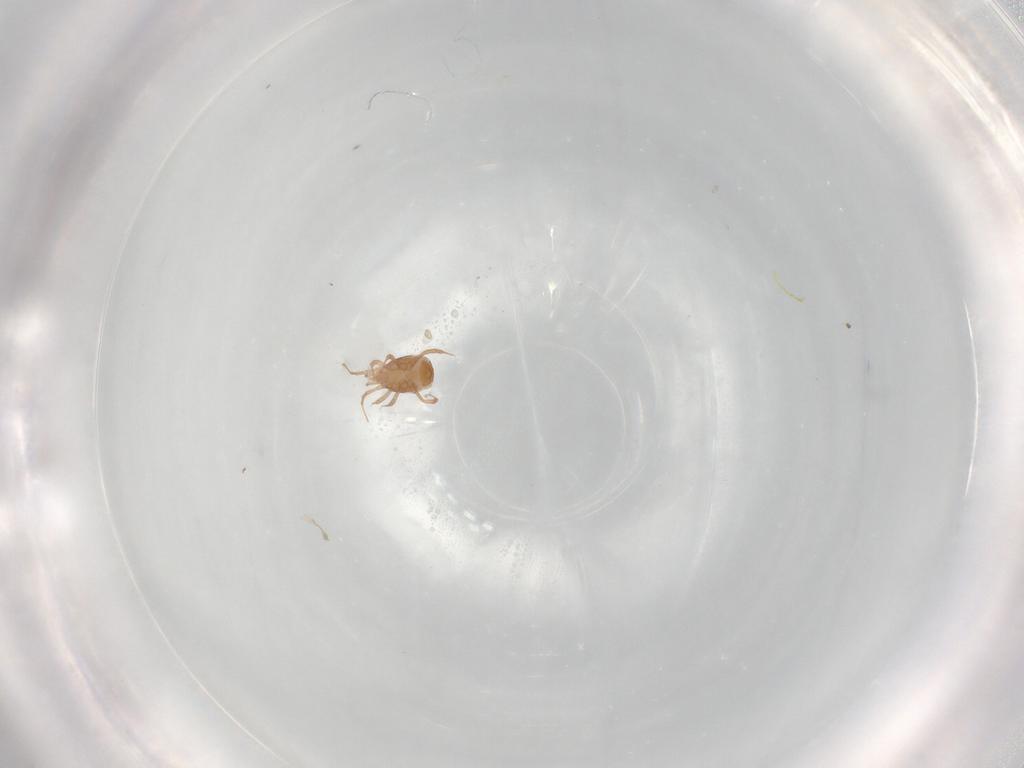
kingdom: Animalia
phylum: Arthropoda
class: Arachnida
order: Mesostigmata
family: Blattisociidae
